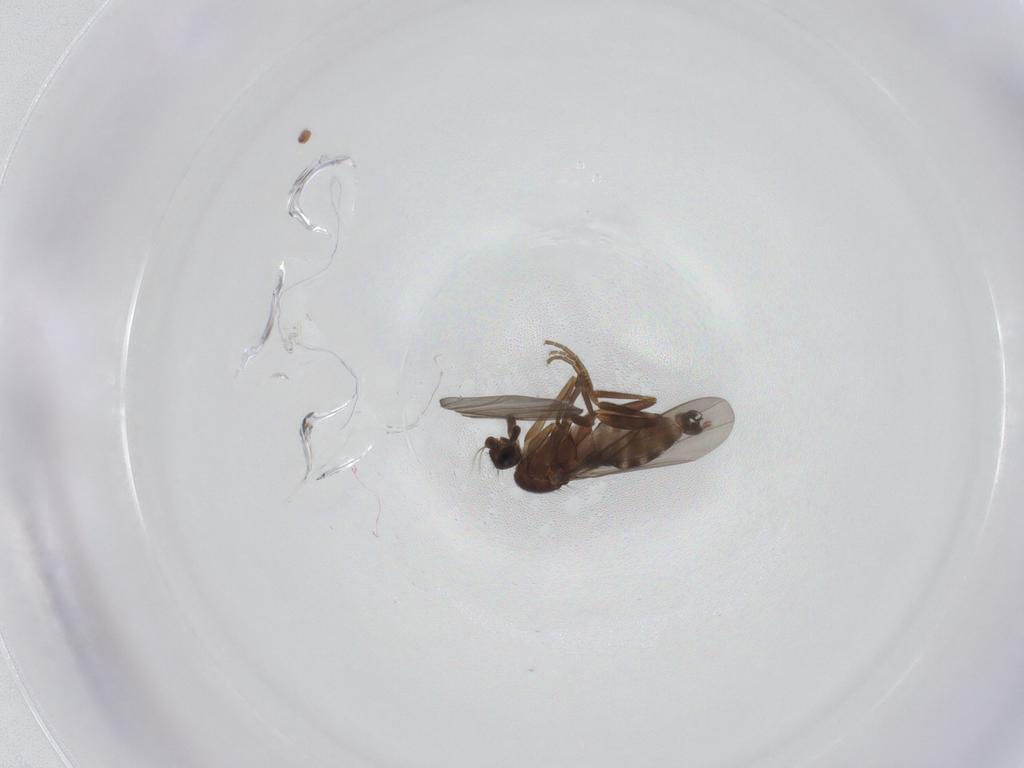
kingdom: Animalia
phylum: Arthropoda
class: Insecta
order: Diptera
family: Phoridae
